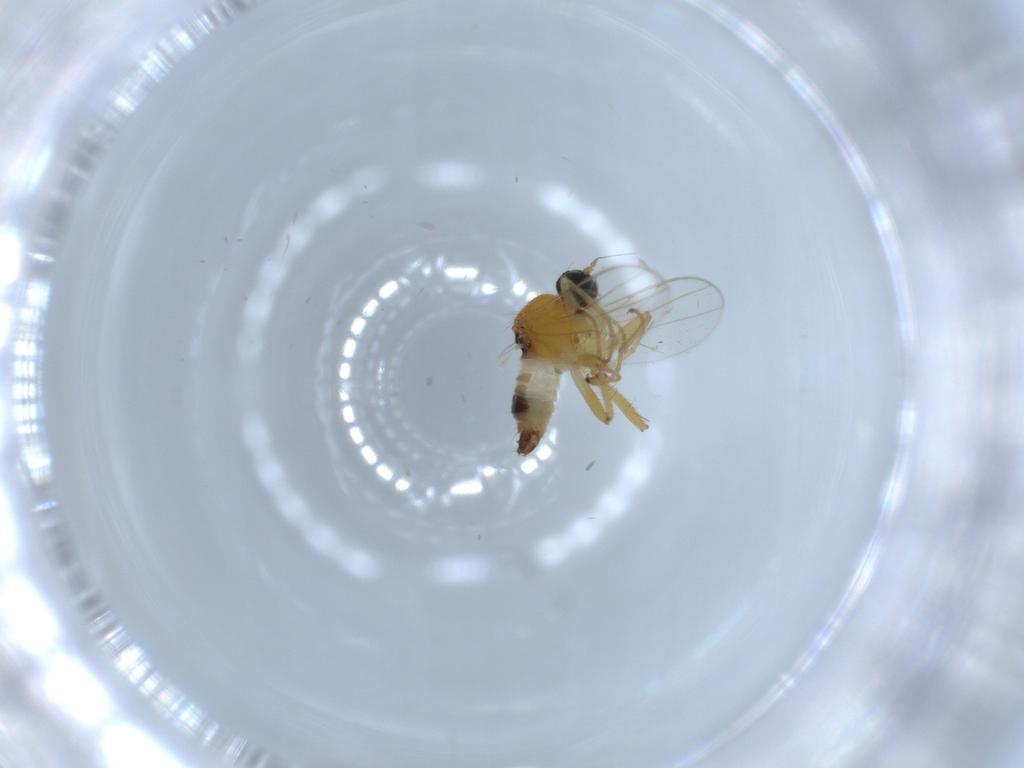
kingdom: Animalia
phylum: Arthropoda
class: Insecta
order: Diptera
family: Hybotidae
